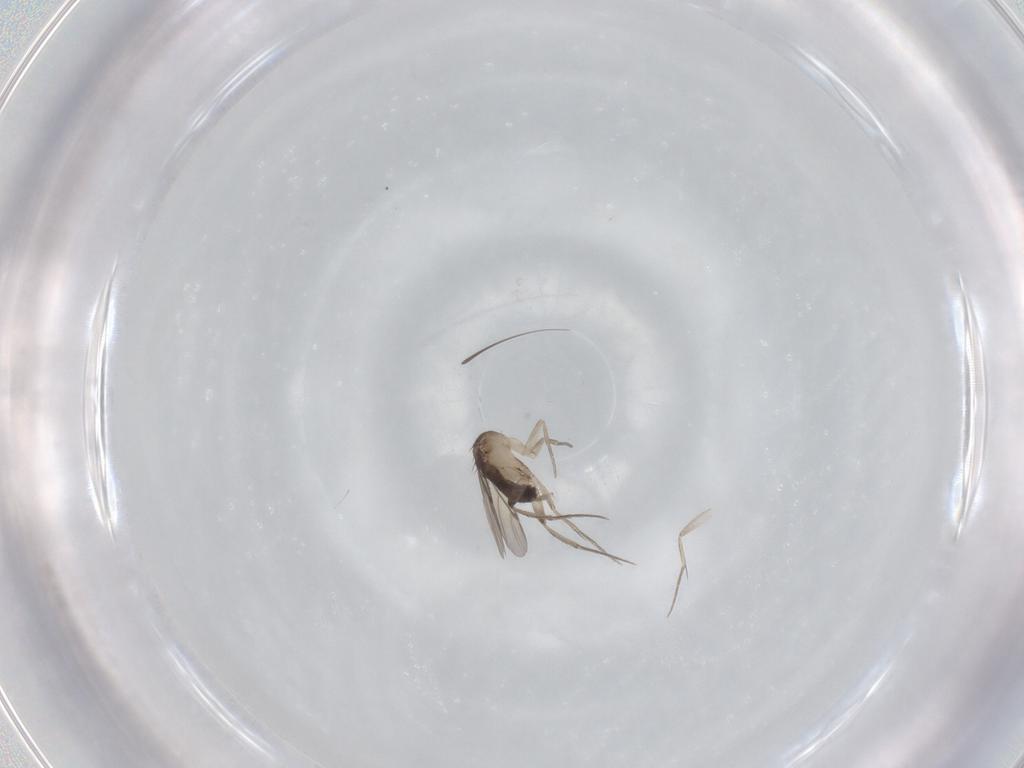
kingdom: Animalia
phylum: Arthropoda
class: Insecta
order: Diptera
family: Phoridae
